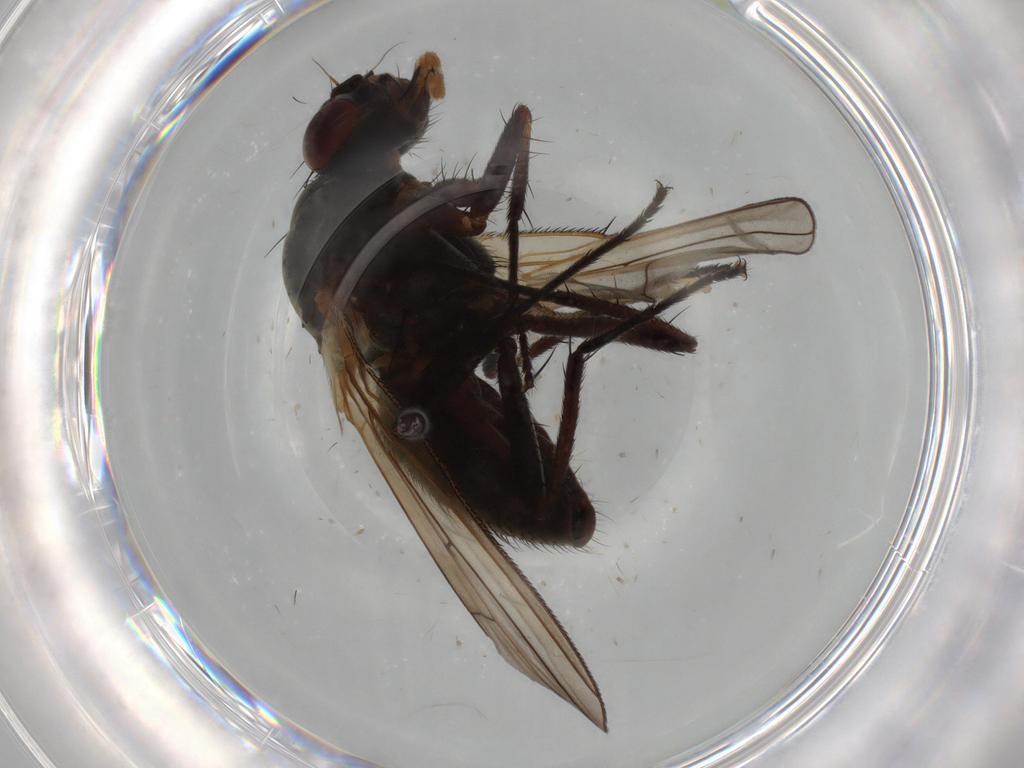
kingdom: Animalia
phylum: Arthropoda
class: Insecta
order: Diptera
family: Anthomyiidae
